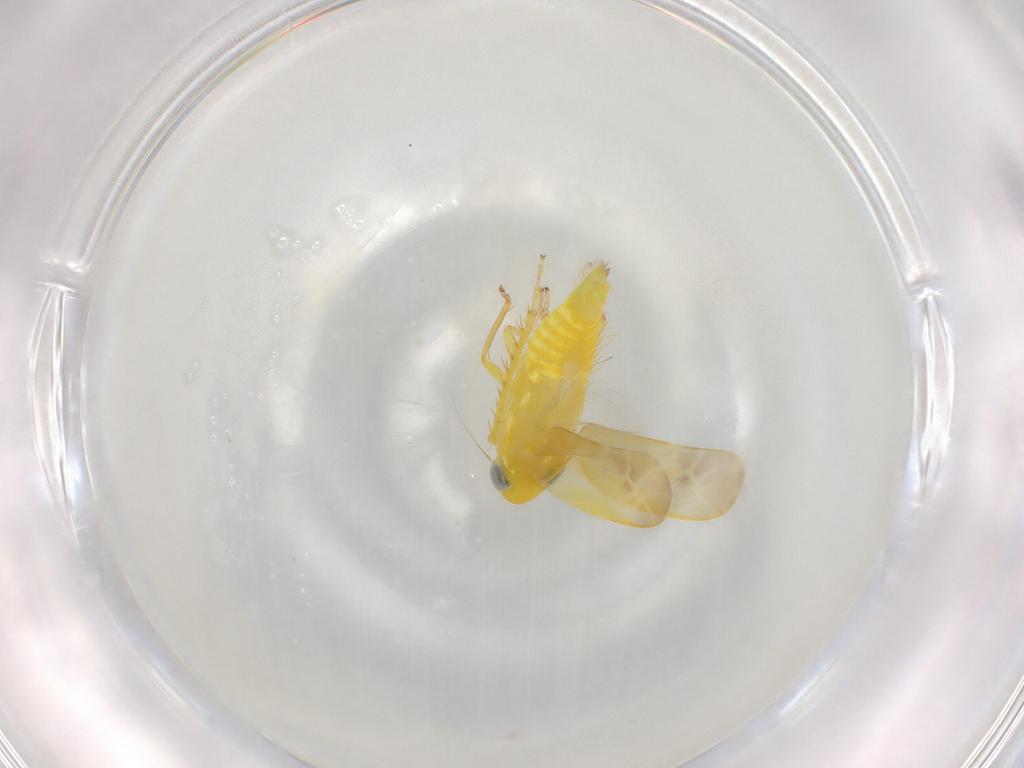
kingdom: Animalia
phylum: Arthropoda
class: Insecta
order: Hemiptera
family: Cicadellidae
